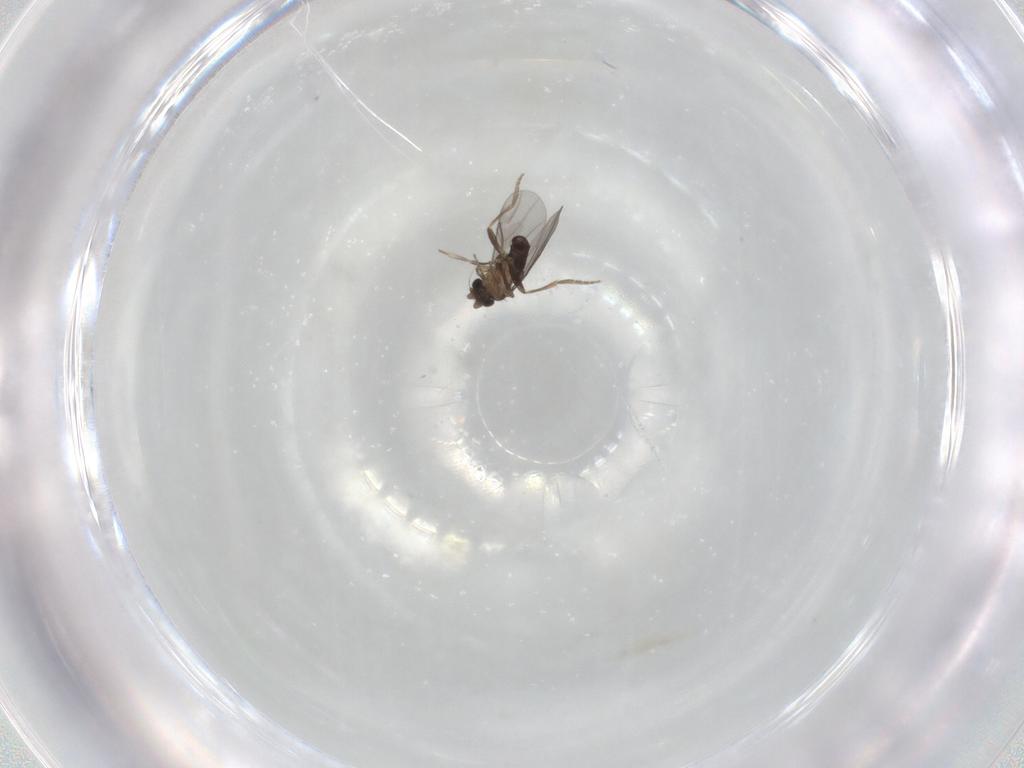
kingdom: Animalia
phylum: Arthropoda
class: Insecta
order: Diptera
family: Cecidomyiidae
